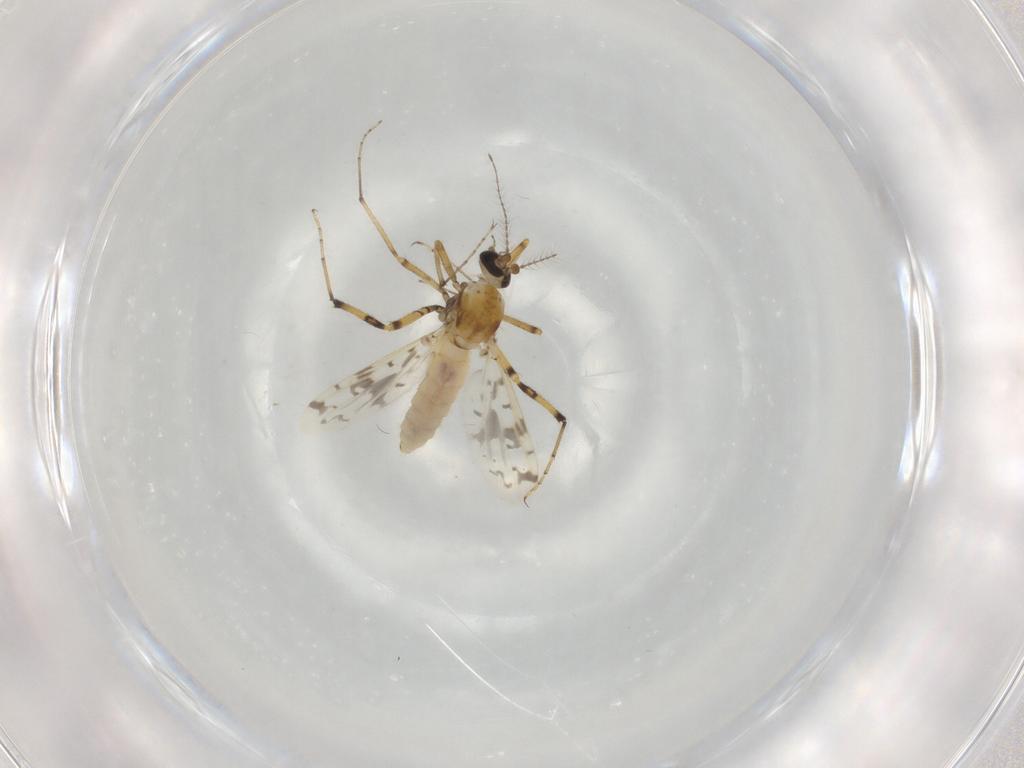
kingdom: Animalia
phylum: Arthropoda
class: Insecta
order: Diptera
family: Ceratopogonidae
